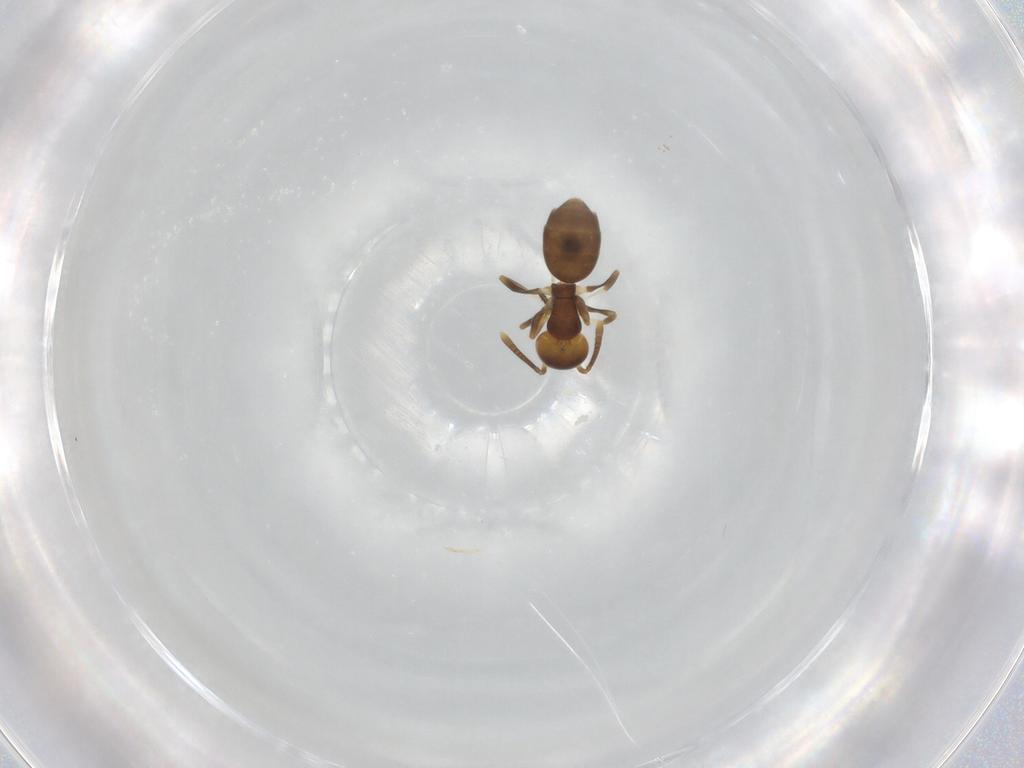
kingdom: Animalia
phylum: Arthropoda
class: Insecta
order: Hymenoptera
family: Formicidae
